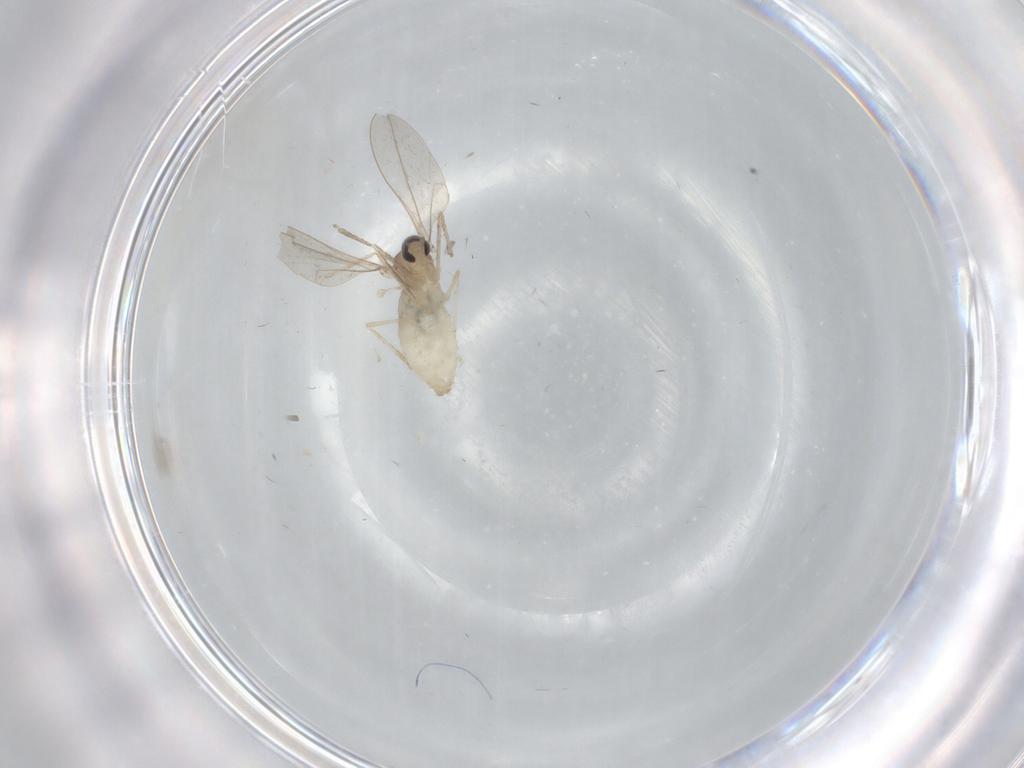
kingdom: Animalia
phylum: Arthropoda
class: Insecta
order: Diptera
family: Cecidomyiidae
